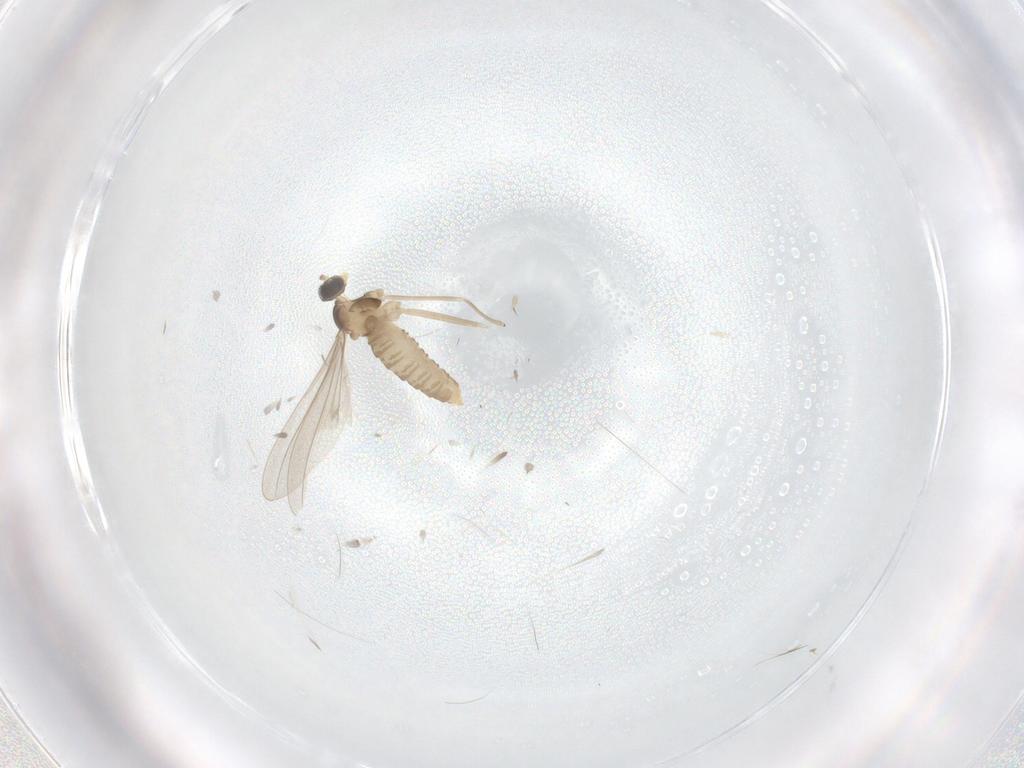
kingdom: Animalia
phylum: Arthropoda
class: Insecta
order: Diptera
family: Cecidomyiidae
